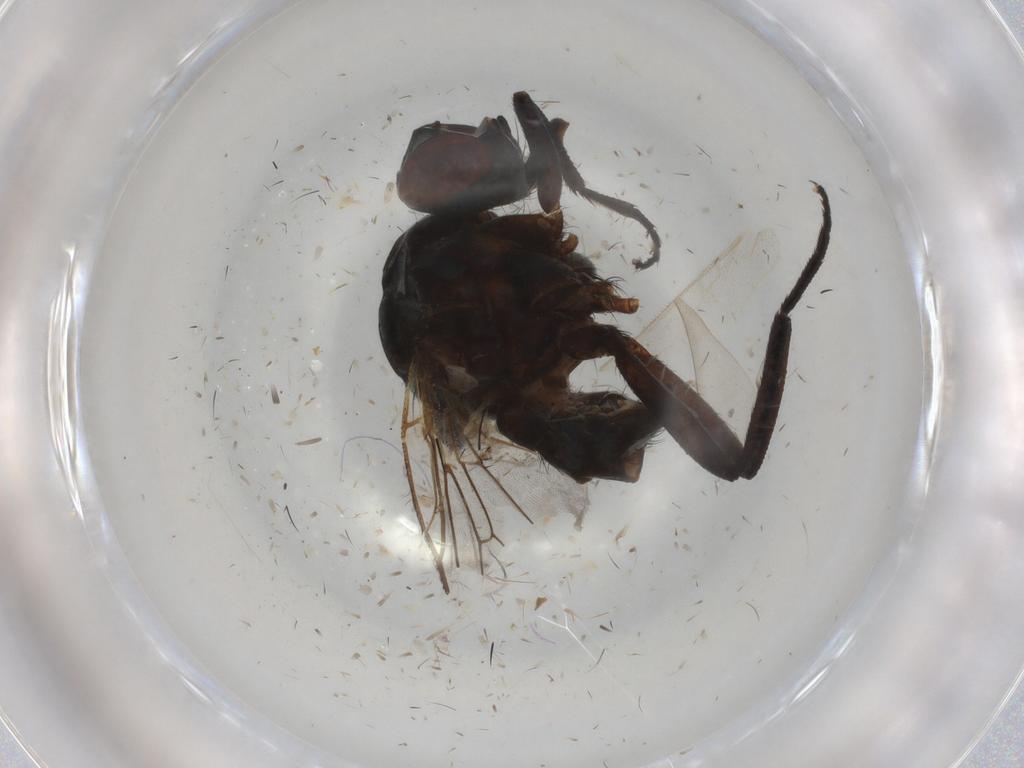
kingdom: Animalia
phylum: Arthropoda
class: Insecta
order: Diptera
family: Anthomyiidae
